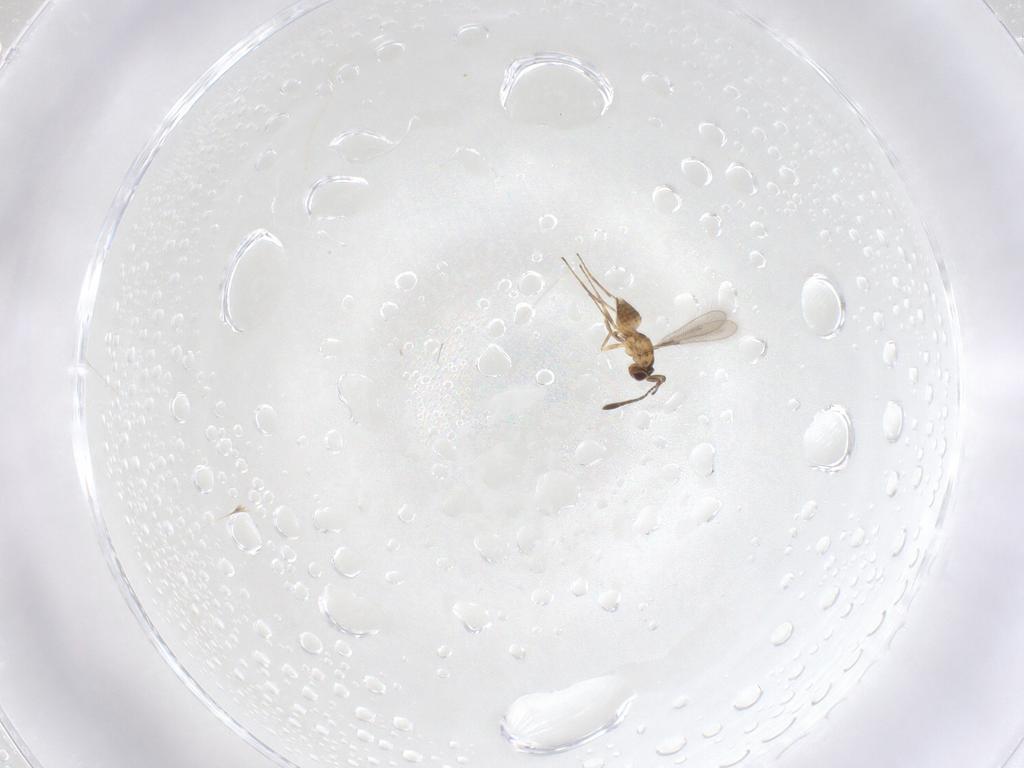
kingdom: Animalia
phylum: Arthropoda
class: Insecta
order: Hymenoptera
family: Mymaridae
